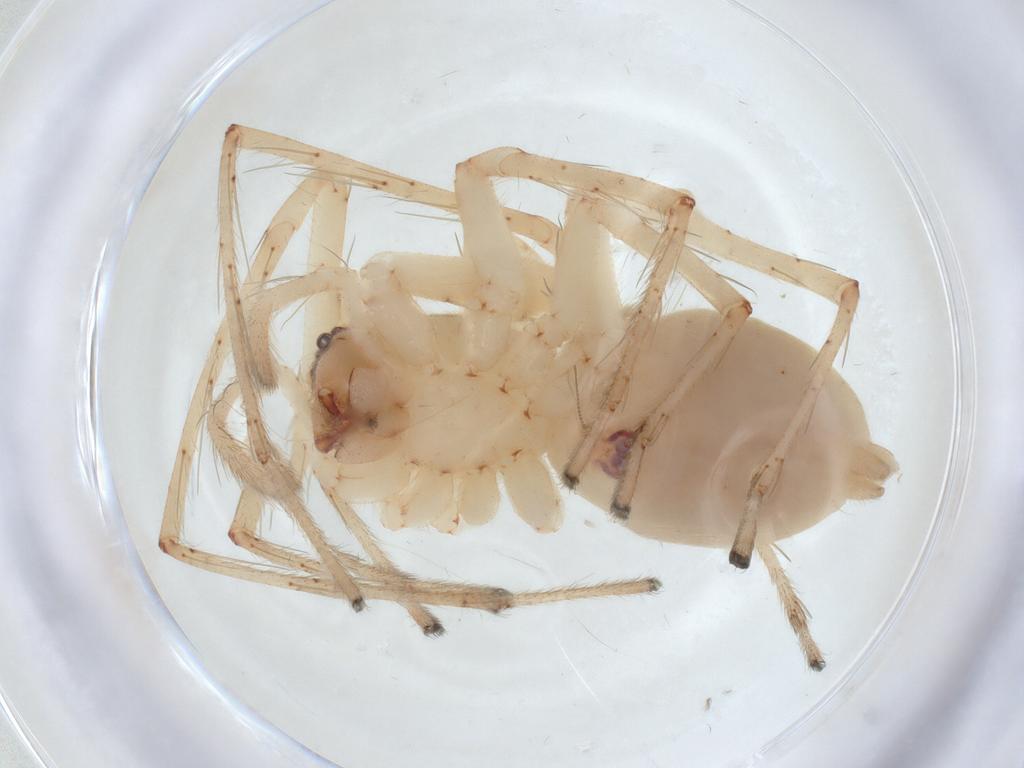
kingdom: Animalia
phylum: Arthropoda
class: Arachnida
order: Araneae
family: Anyphaenidae
